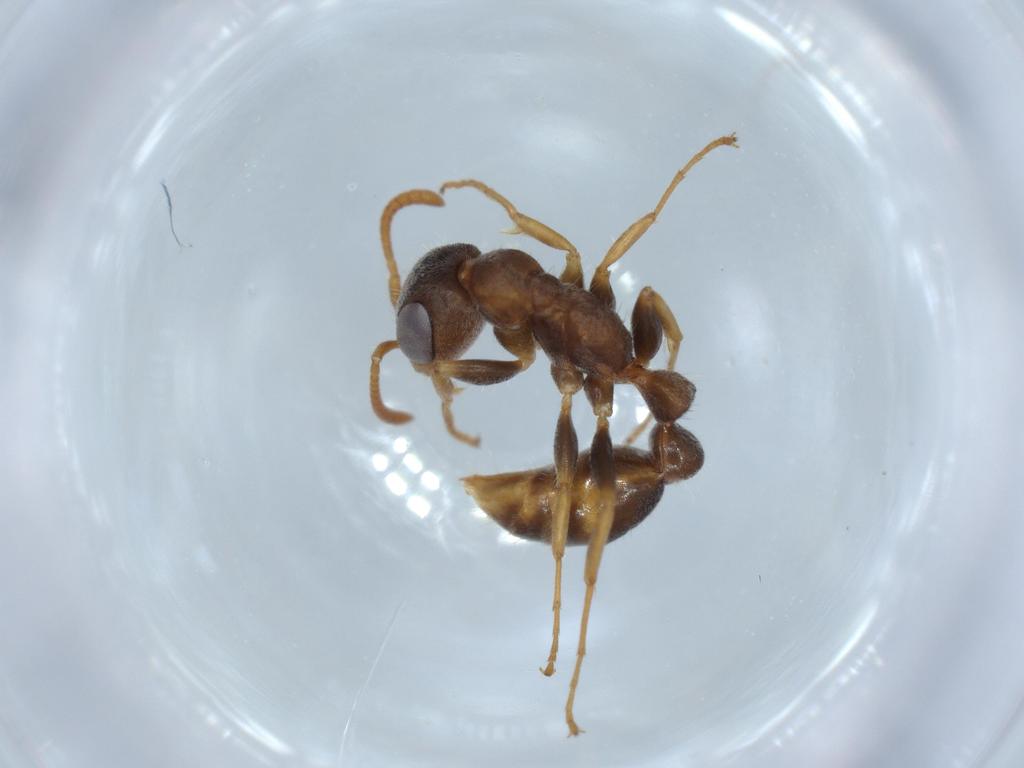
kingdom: Animalia
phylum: Arthropoda
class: Insecta
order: Hymenoptera
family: Formicidae
